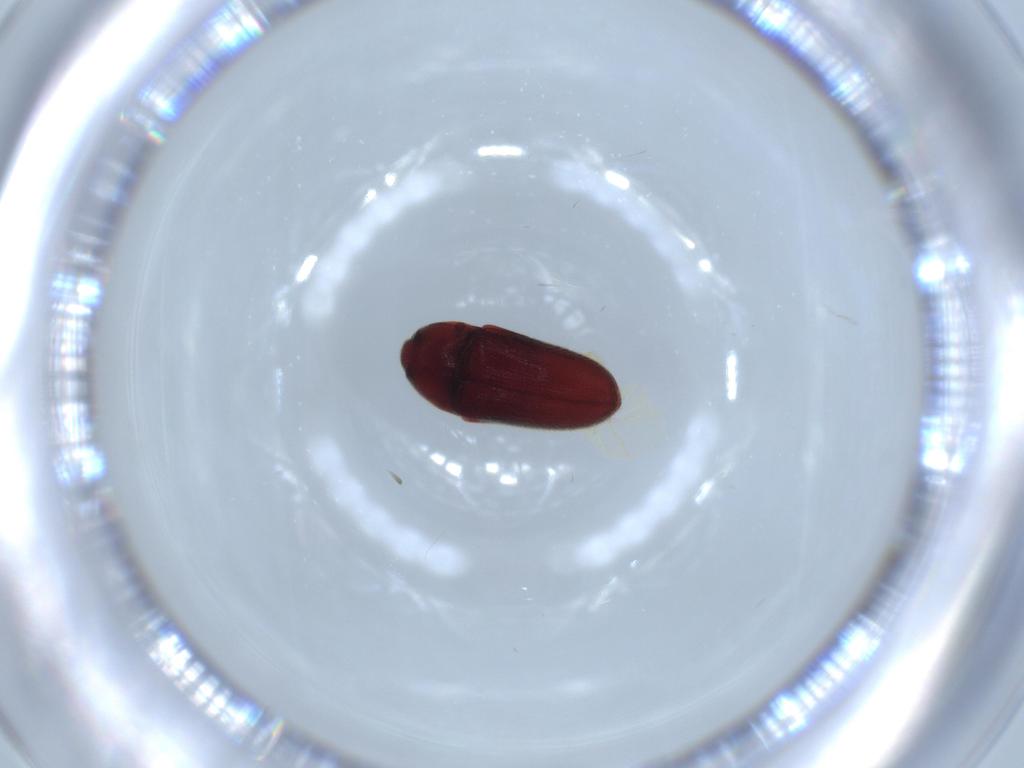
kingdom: Animalia
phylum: Arthropoda
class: Insecta
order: Coleoptera
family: Throscidae
